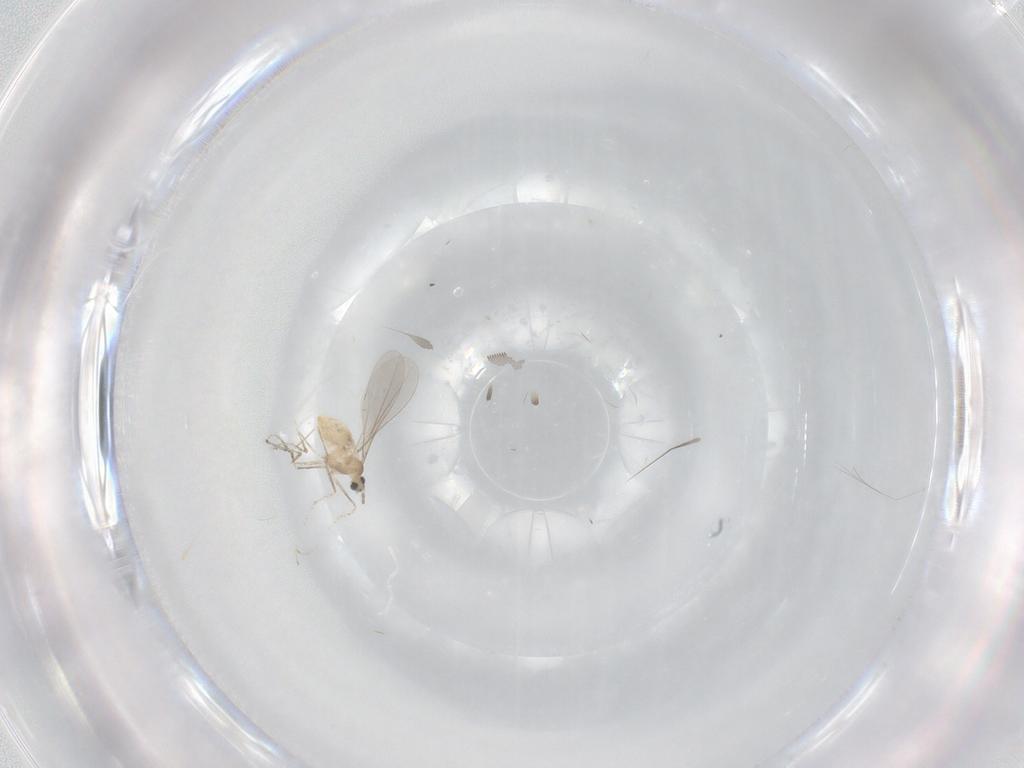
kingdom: Animalia
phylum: Arthropoda
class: Insecta
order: Diptera
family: Cecidomyiidae
